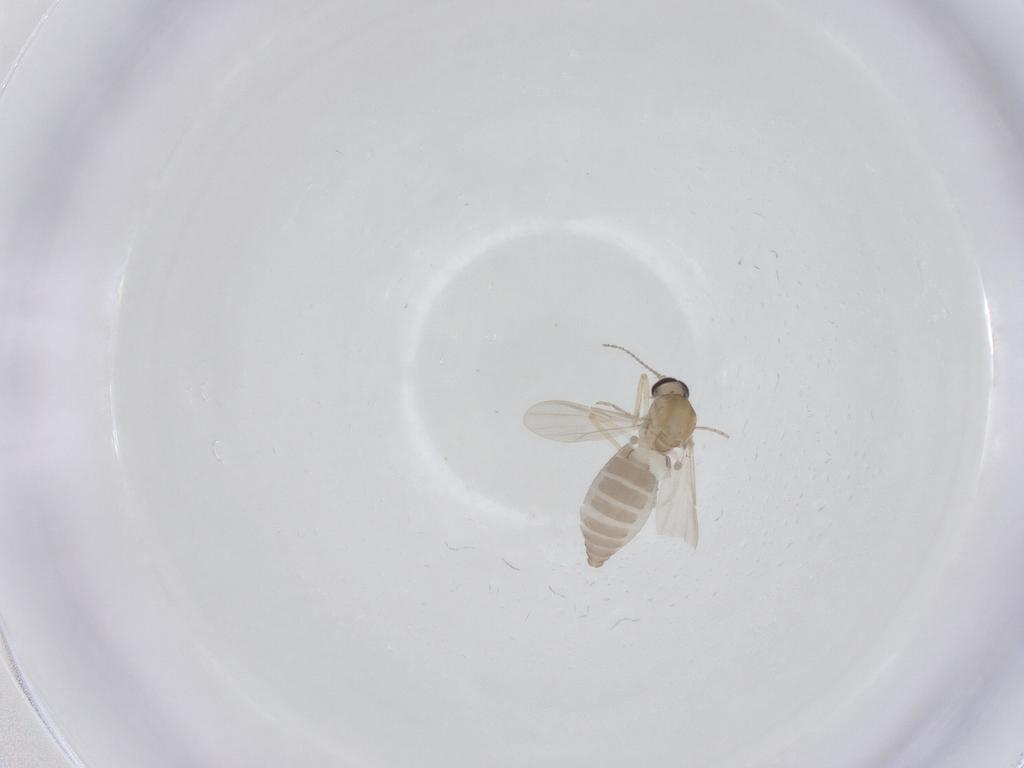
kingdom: Animalia
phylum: Arthropoda
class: Insecta
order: Diptera
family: Ceratopogonidae
